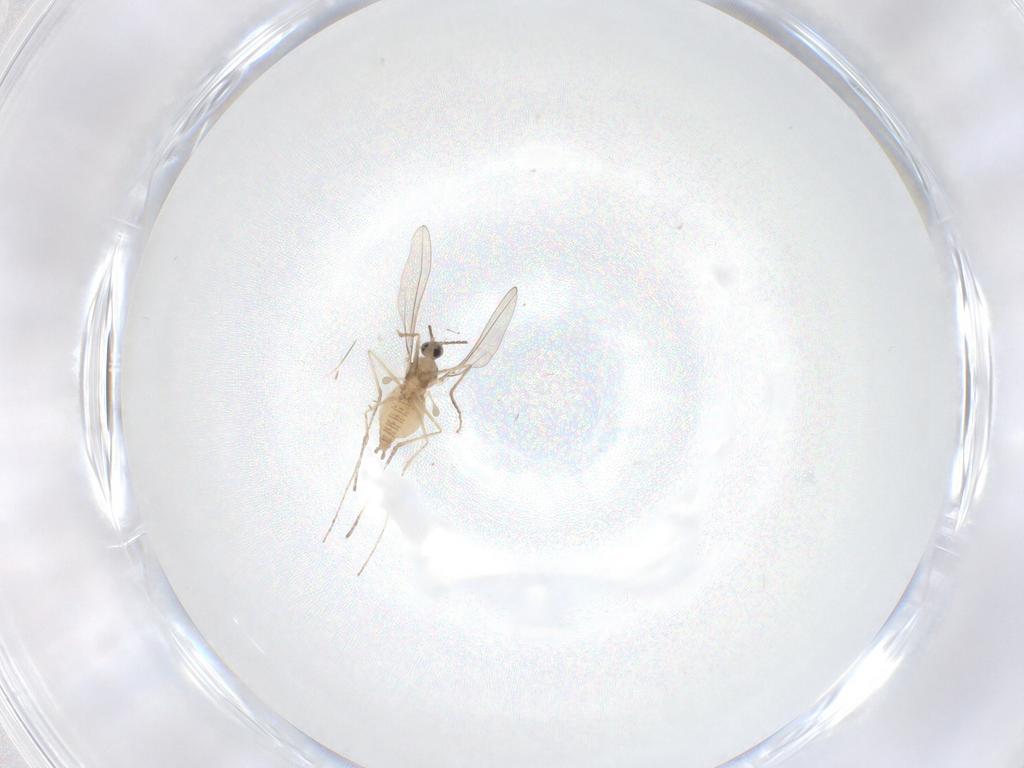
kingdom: Animalia
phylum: Arthropoda
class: Insecta
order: Diptera
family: Cecidomyiidae
